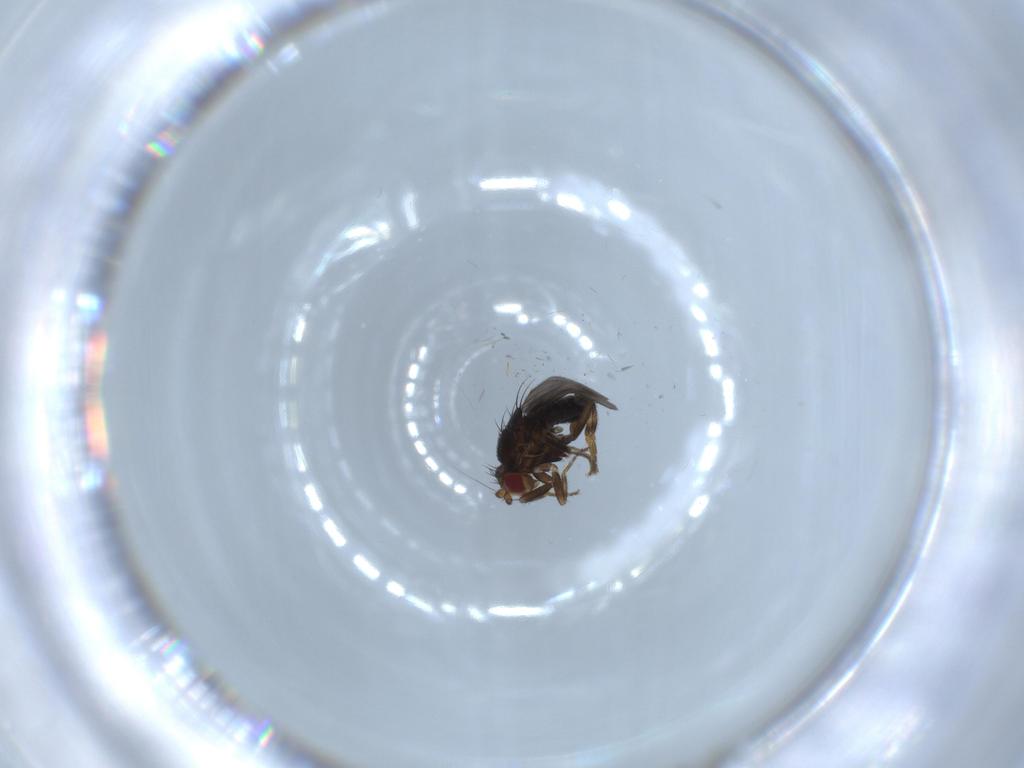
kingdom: Animalia
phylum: Arthropoda
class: Insecta
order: Diptera
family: Sphaeroceridae
